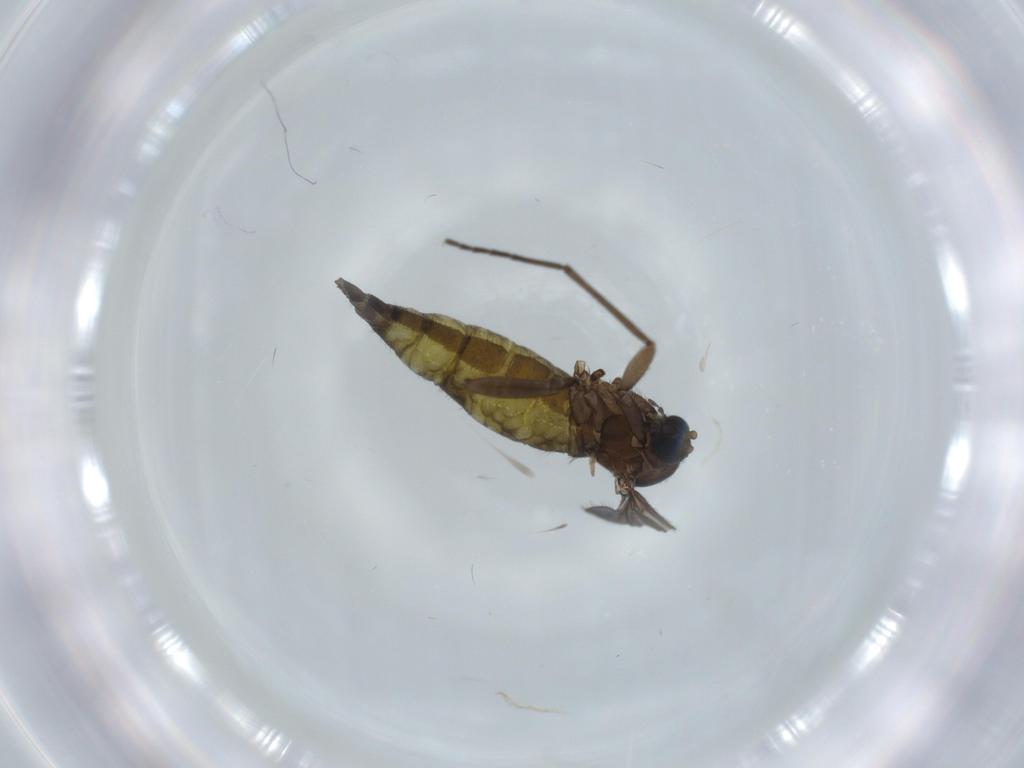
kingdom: Animalia
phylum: Arthropoda
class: Insecta
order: Diptera
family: Sciaridae
